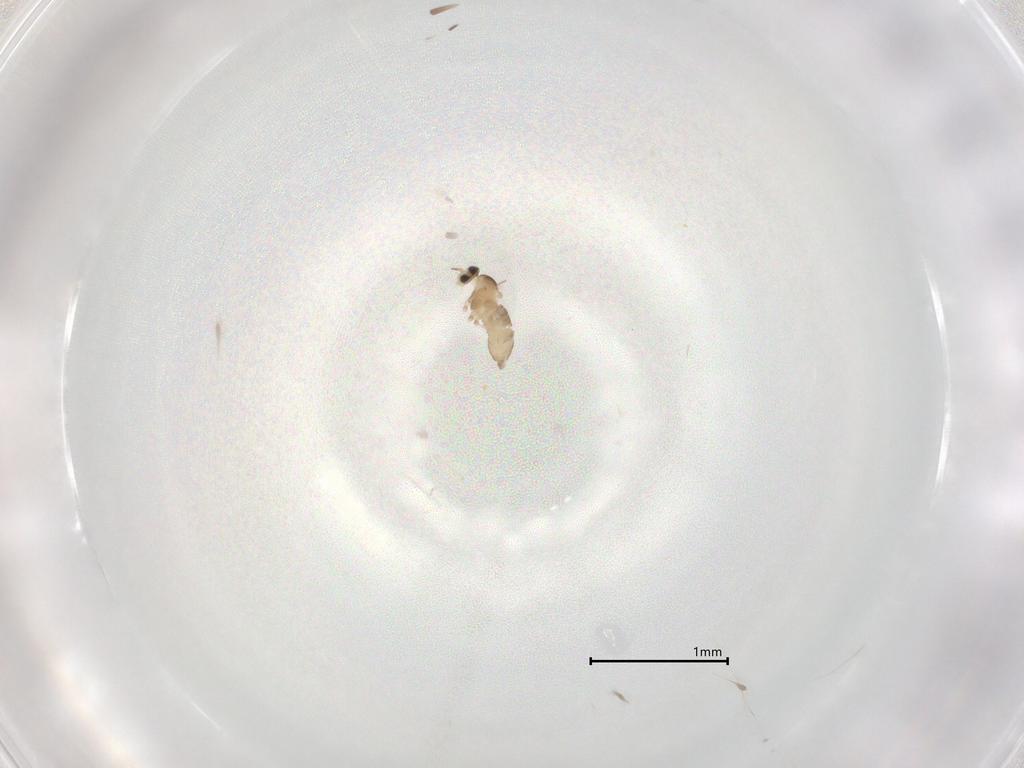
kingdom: Animalia
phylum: Arthropoda
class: Insecta
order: Diptera
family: Cecidomyiidae
